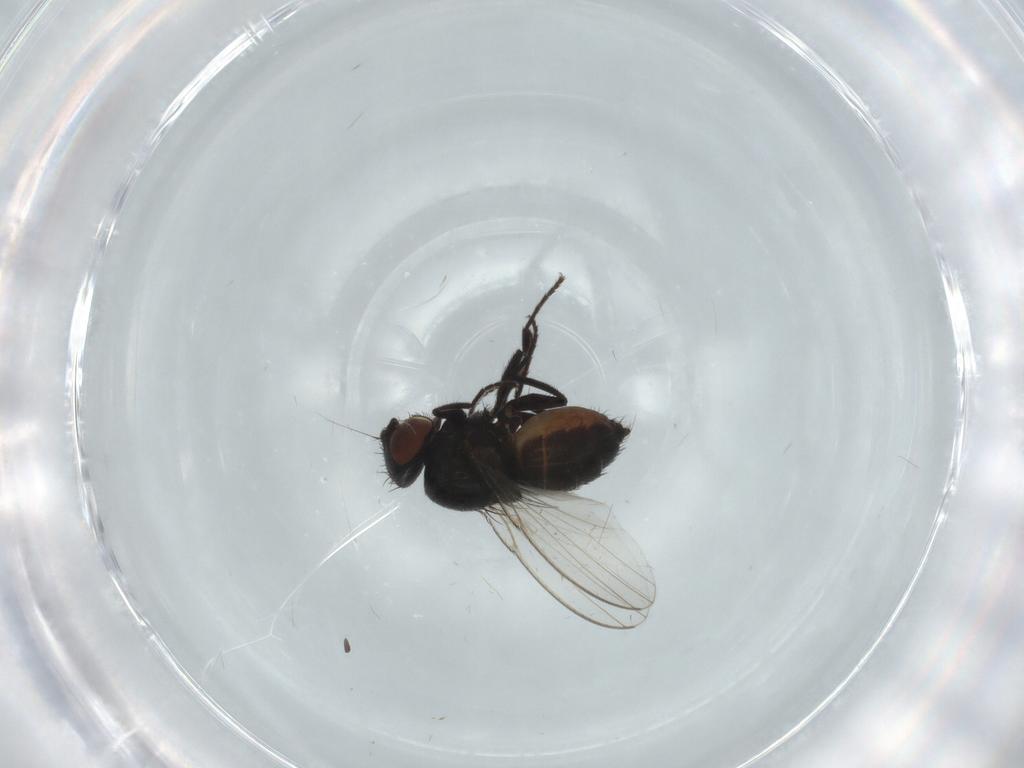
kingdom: Animalia
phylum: Arthropoda
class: Insecta
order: Diptera
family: Milichiidae
